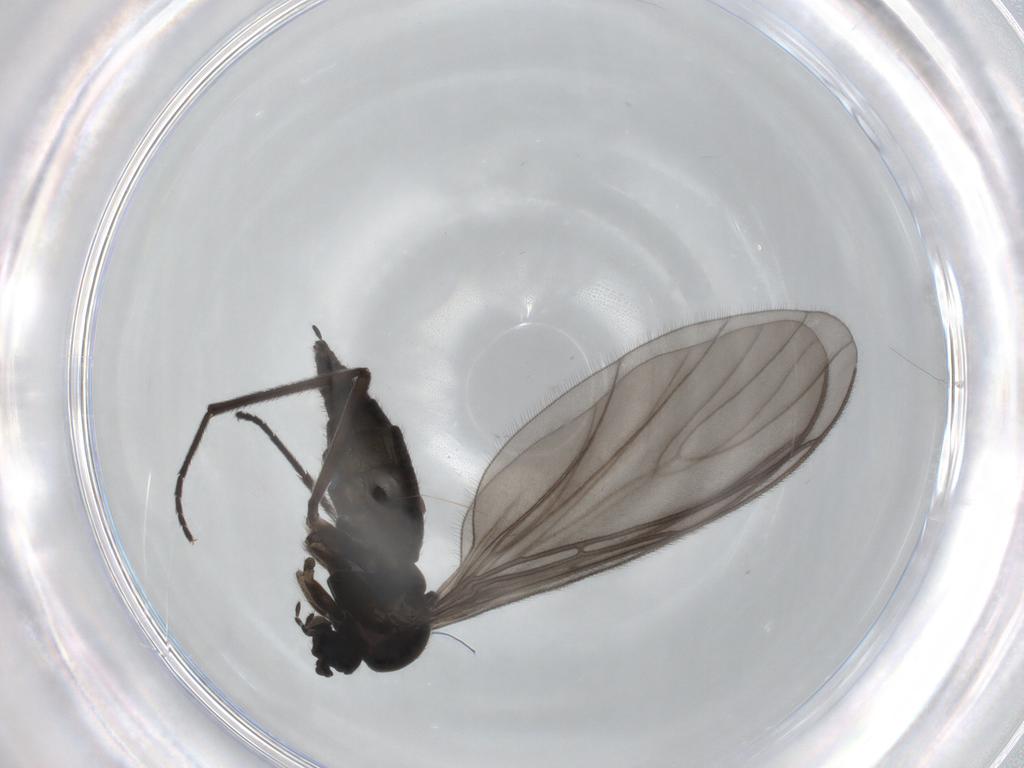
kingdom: Animalia
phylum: Arthropoda
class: Insecta
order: Diptera
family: Sciaridae
